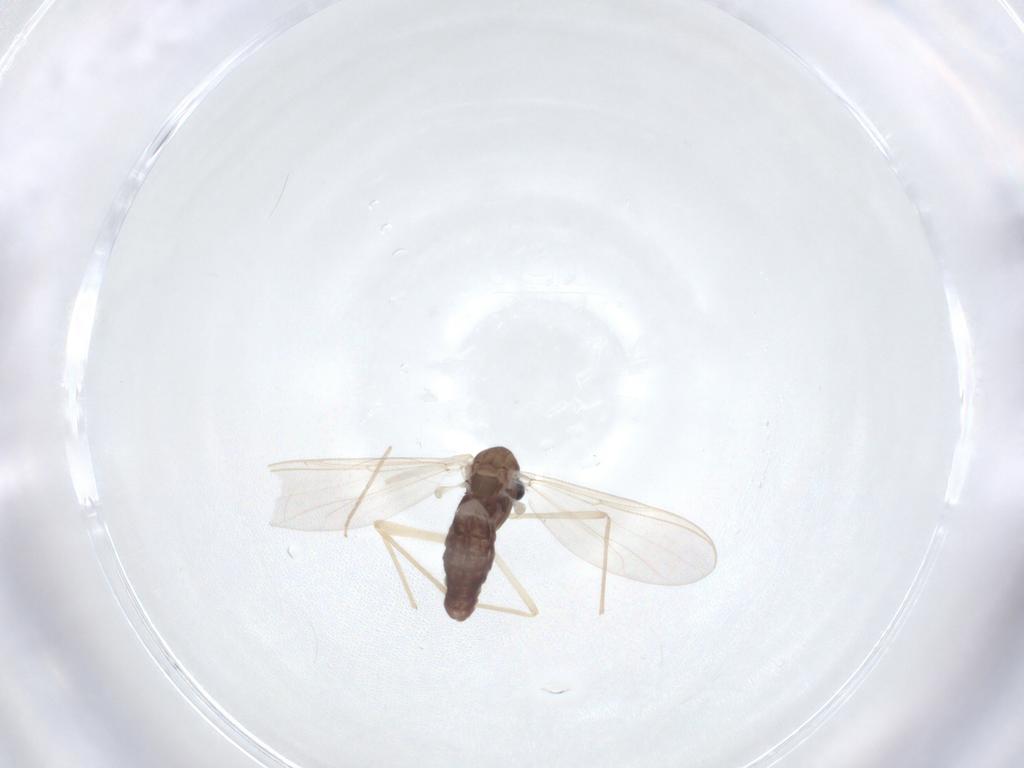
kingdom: Animalia
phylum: Arthropoda
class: Insecta
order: Diptera
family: Chironomidae
